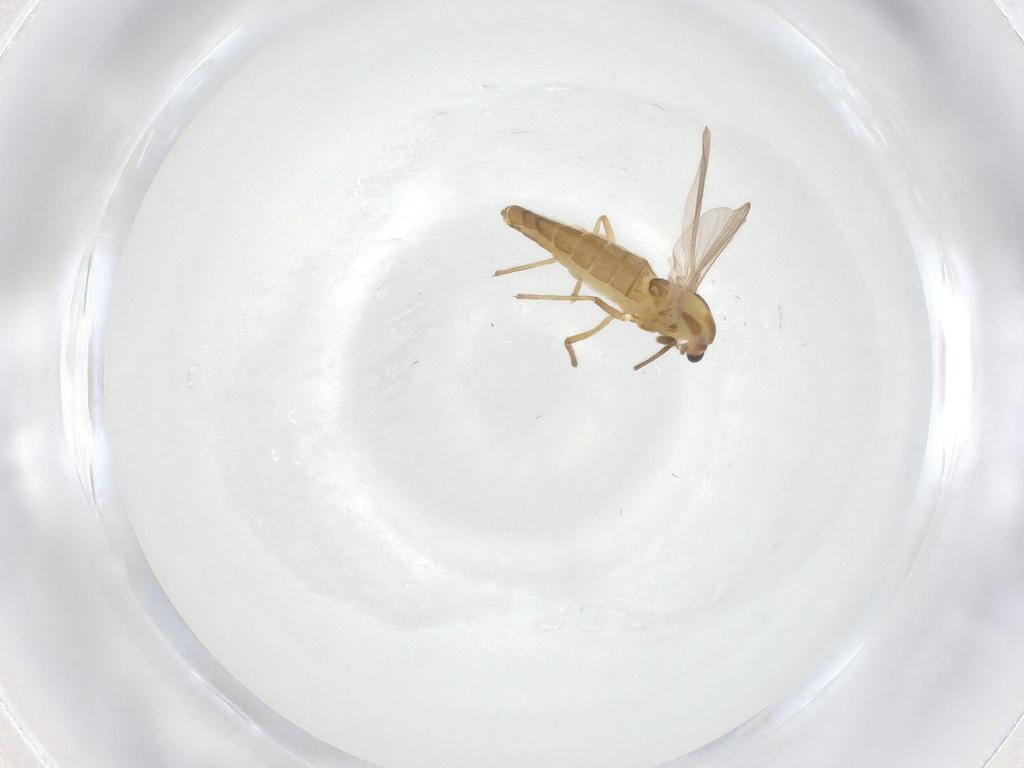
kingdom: Animalia
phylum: Arthropoda
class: Insecta
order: Diptera
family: Chironomidae
